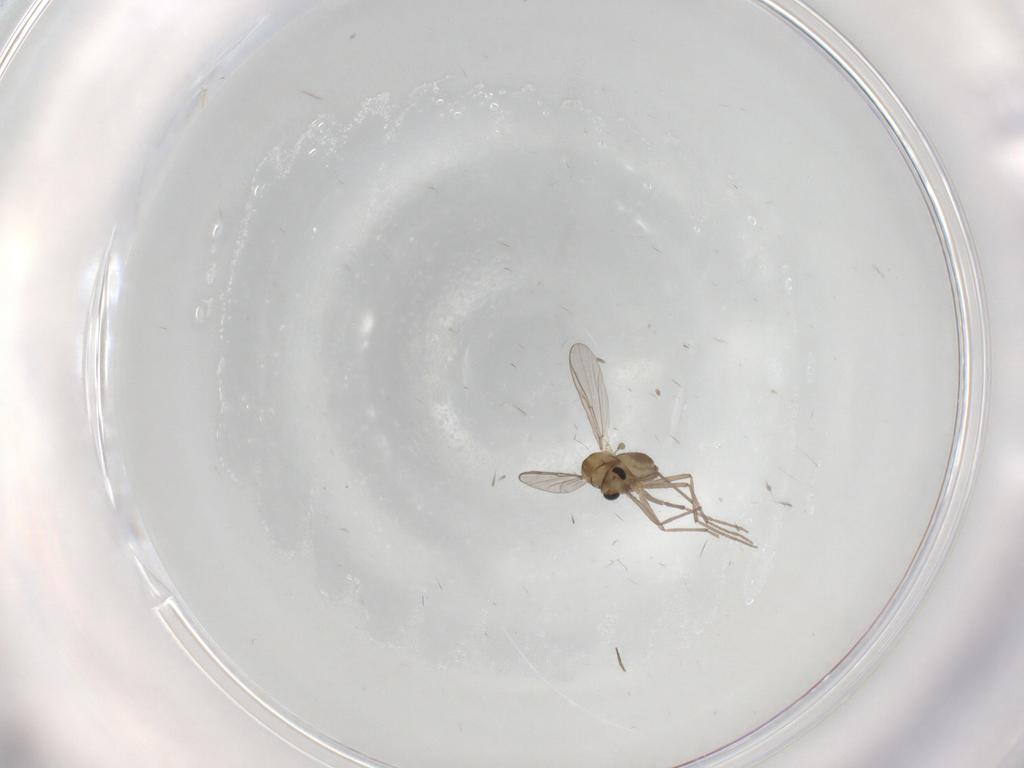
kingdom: Animalia
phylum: Arthropoda
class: Insecta
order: Diptera
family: Chironomidae
